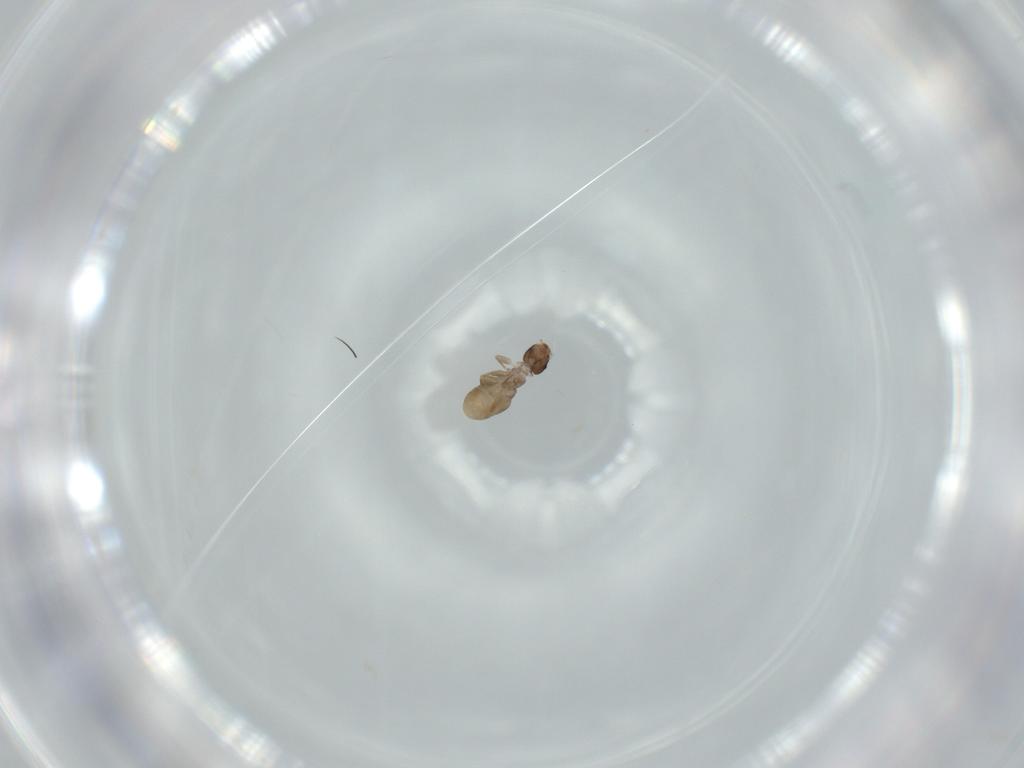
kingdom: Animalia
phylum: Arthropoda
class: Insecta
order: Psocodea
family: Liposcelididae
